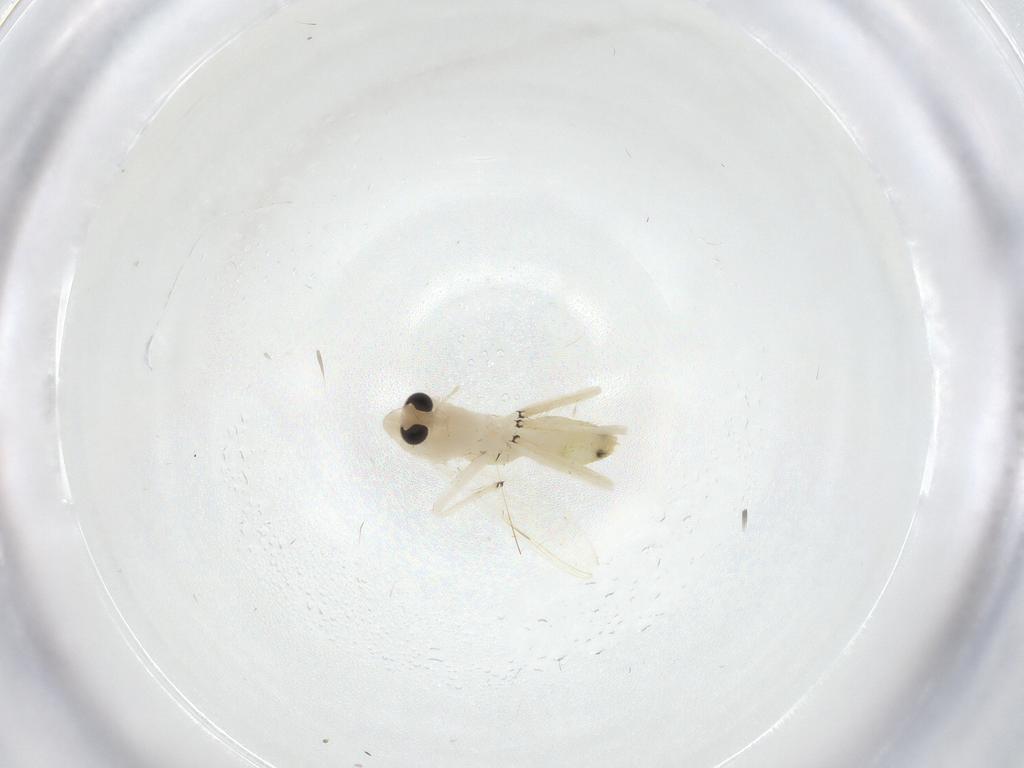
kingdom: Animalia
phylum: Arthropoda
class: Insecta
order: Diptera
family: Chironomidae
